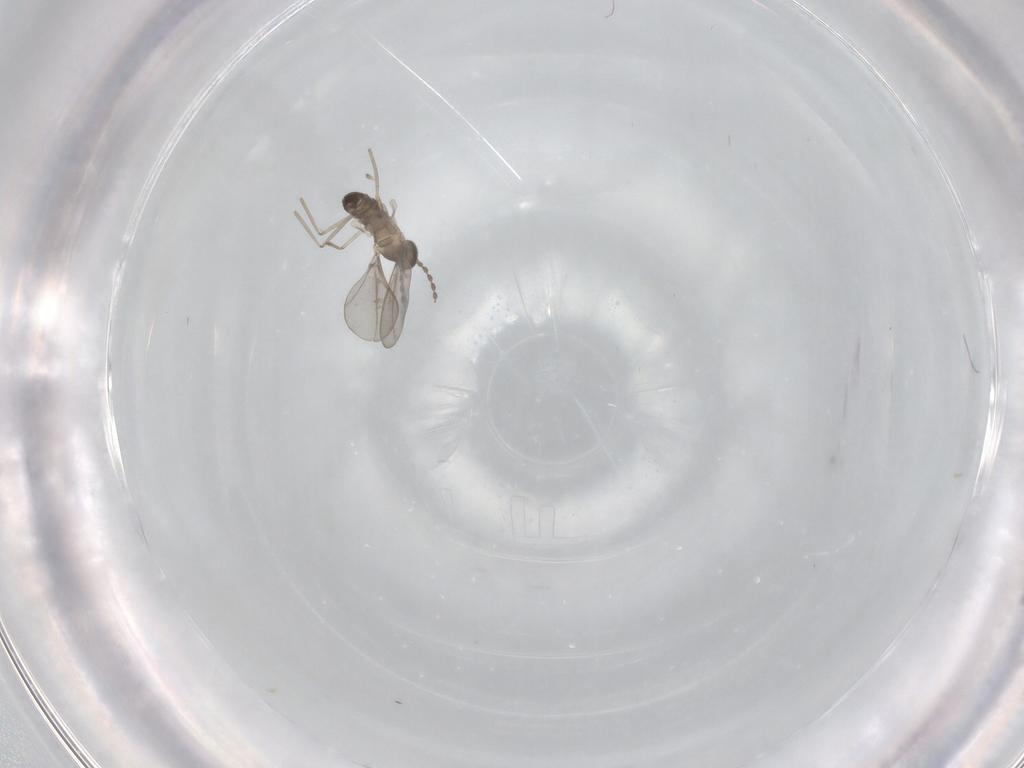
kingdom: Animalia
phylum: Arthropoda
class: Insecta
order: Diptera
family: Cecidomyiidae
